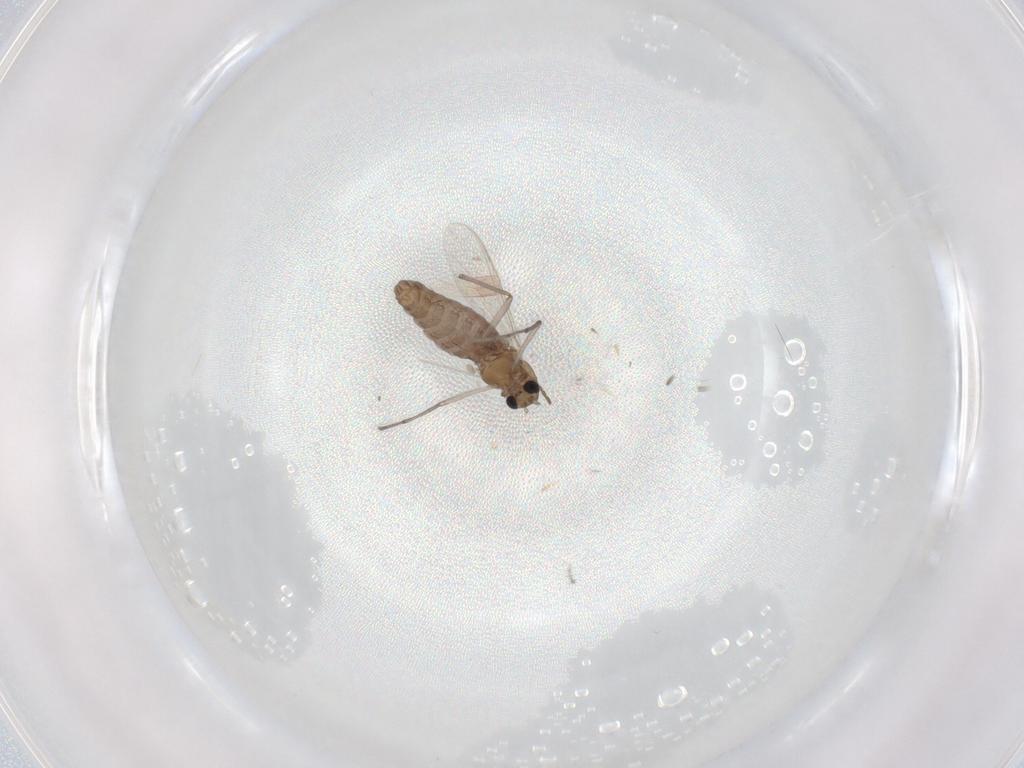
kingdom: Animalia
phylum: Arthropoda
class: Insecta
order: Diptera
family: Chironomidae
